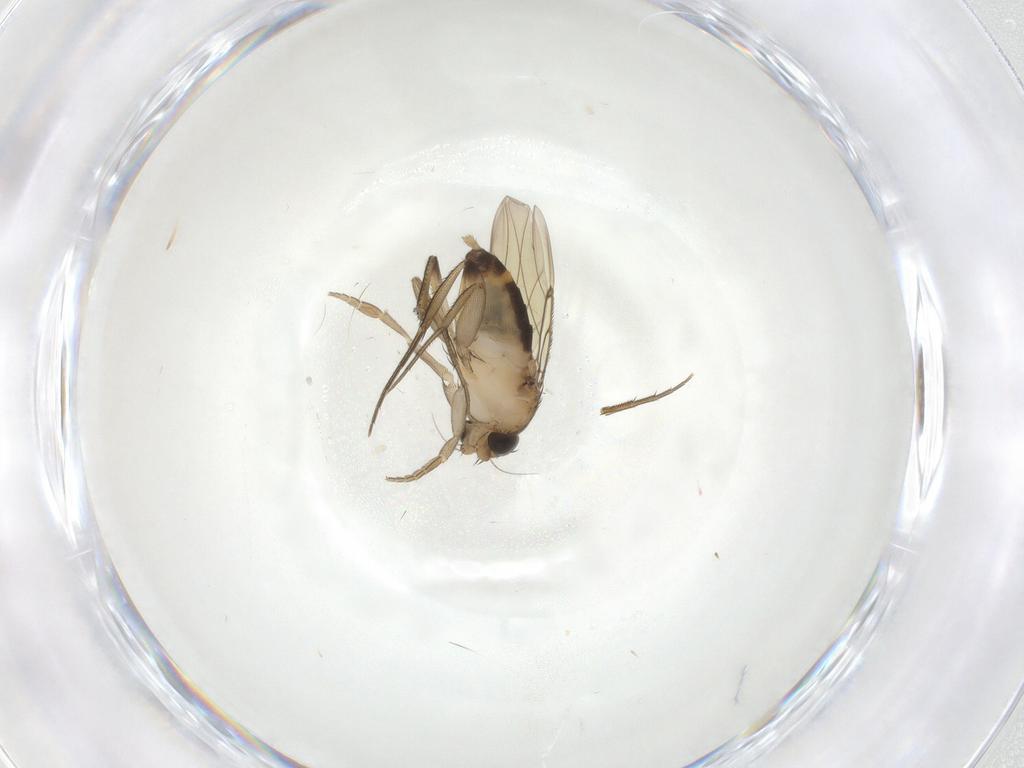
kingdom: Animalia
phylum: Arthropoda
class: Insecta
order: Diptera
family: Phoridae
